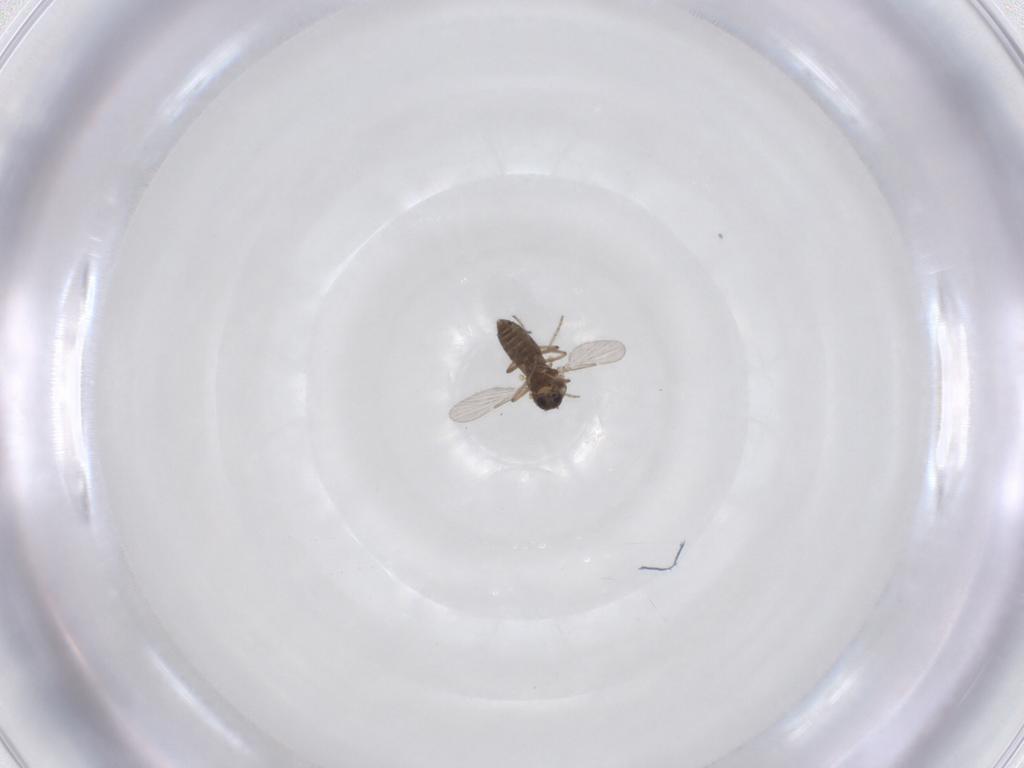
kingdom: Animalia
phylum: Arthropoda
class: Insecta
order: Diptera
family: Ceratopogonidae
